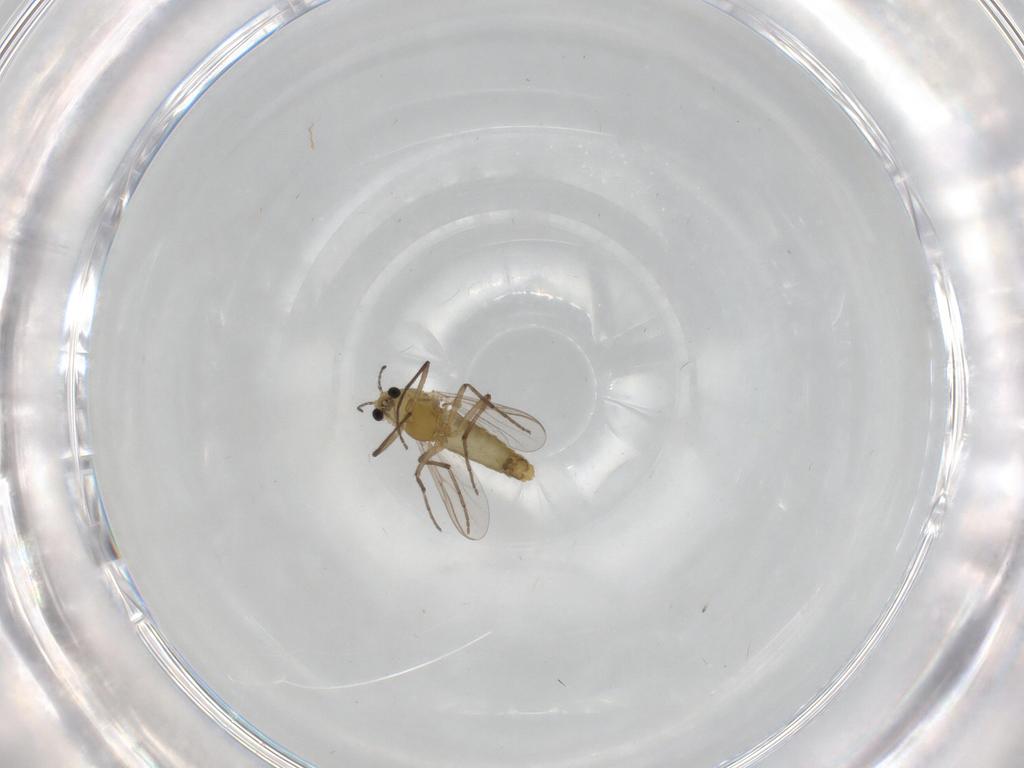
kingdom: Animalia
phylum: Arthropoda
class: Insecta
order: Diptera
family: Chironomidae
